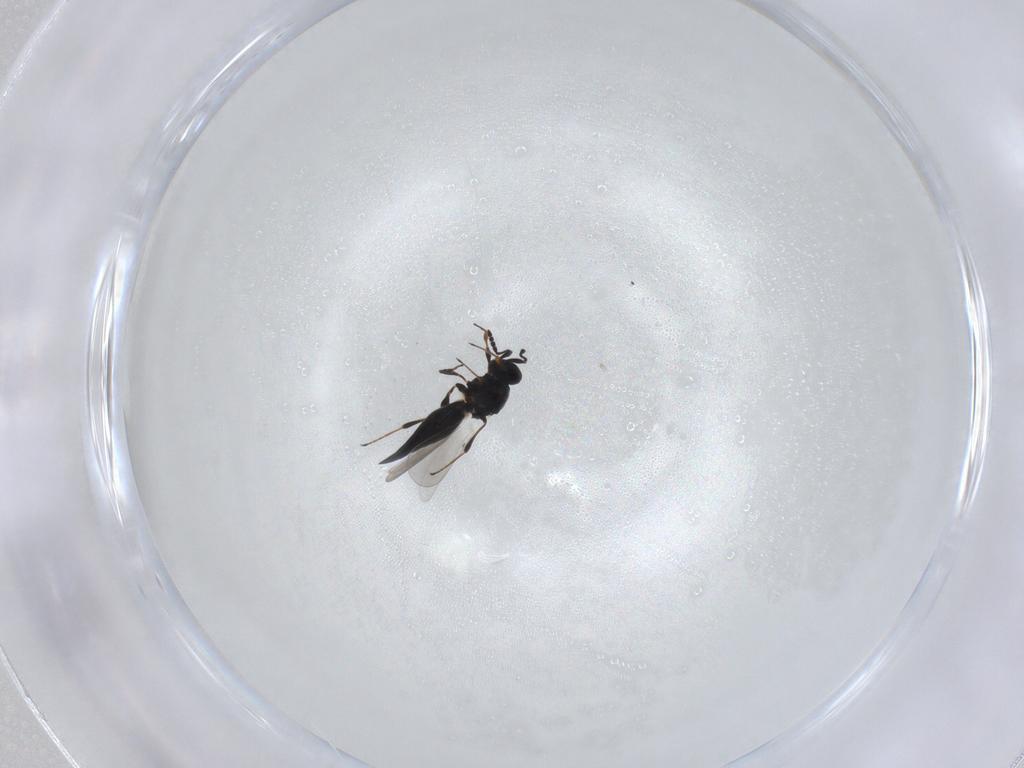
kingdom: Animalia
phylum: Arthropoda
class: Insecta
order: Hymenoptera
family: Platygastridae
